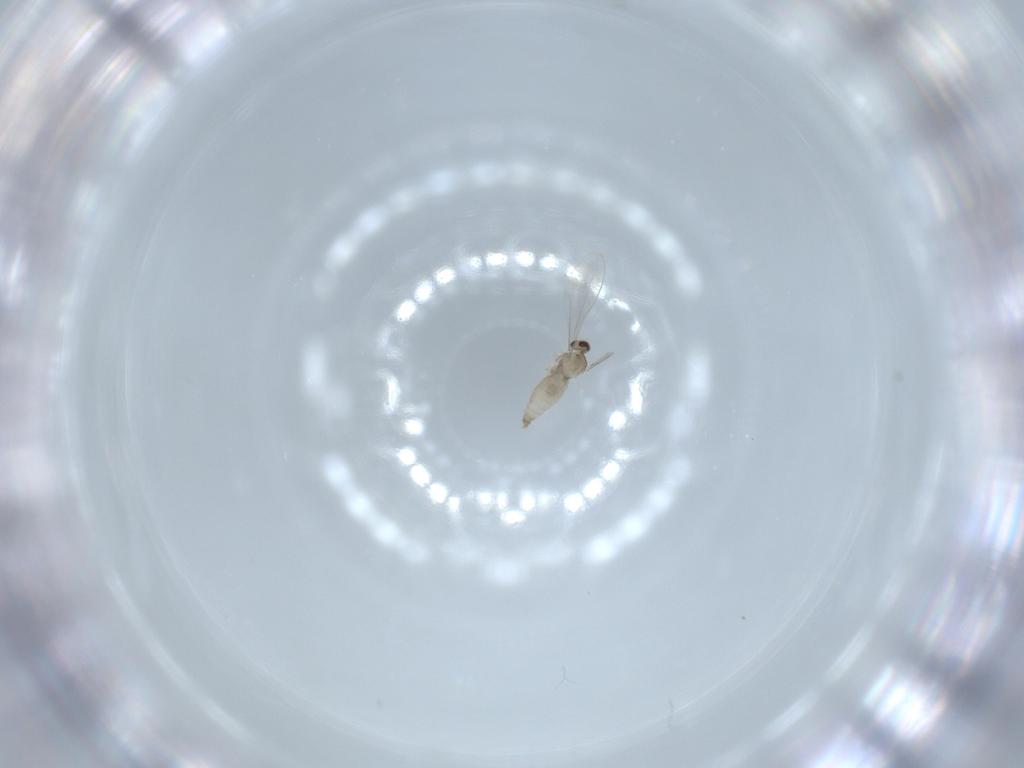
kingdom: Animalia
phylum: Arthropoda
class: Insecta
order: Diptera
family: Cecidomyiidae
